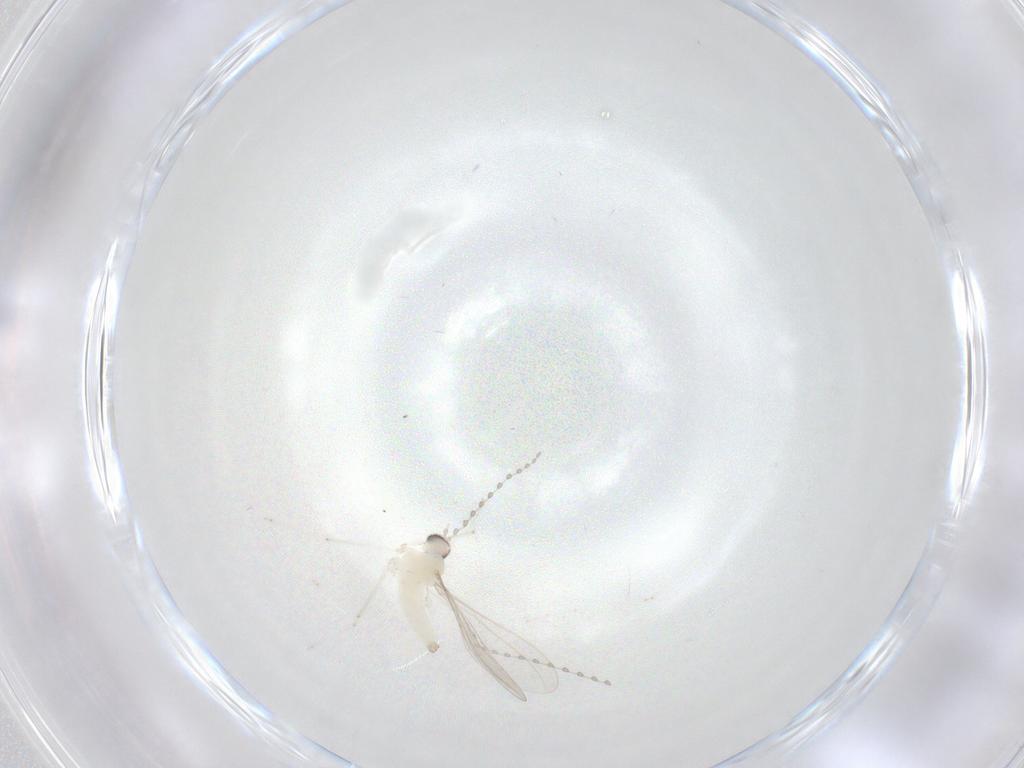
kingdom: Animalia
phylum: Arthropoda
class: Insecta
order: Diptera
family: Cecidomyiidae
